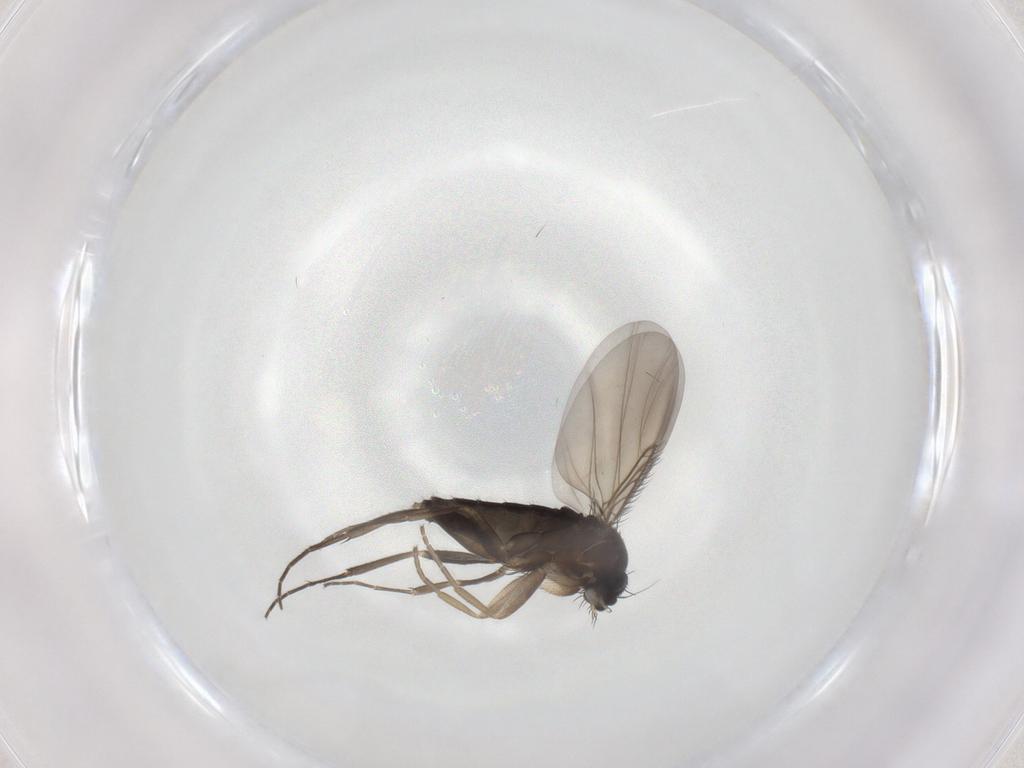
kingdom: Animalia
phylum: Arthropoda
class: Insecta
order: Diptera
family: Phoridae
